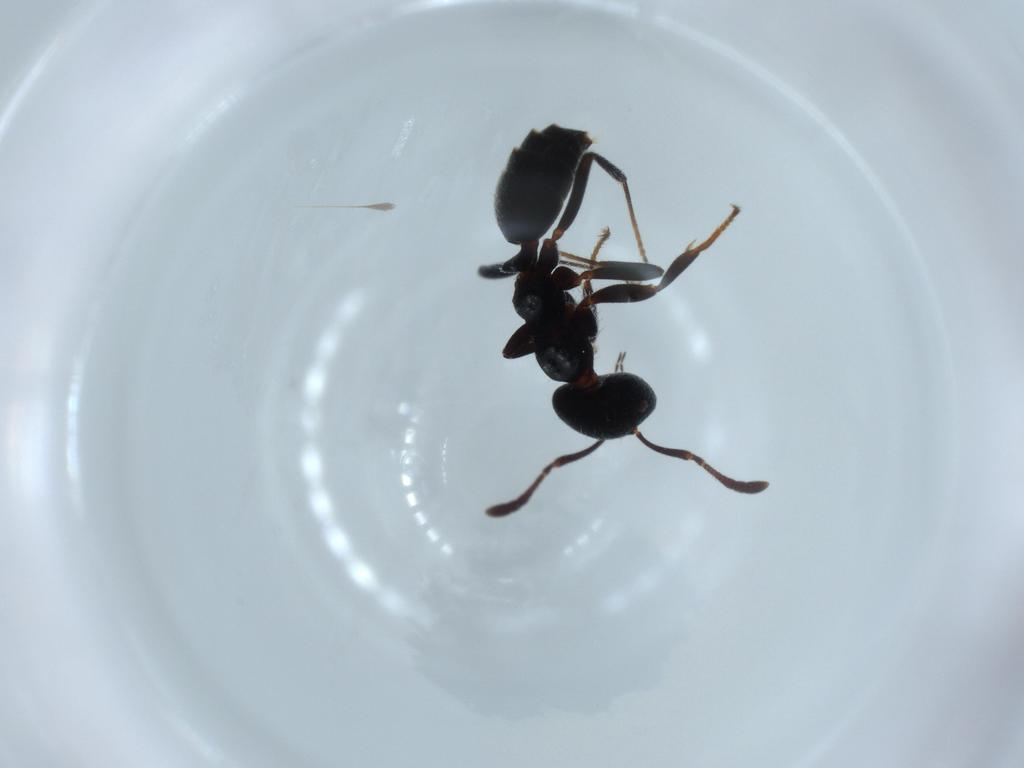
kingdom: Animalia
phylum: Arthropoda
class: Insecta
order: Hymenoptera
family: Formicidae
